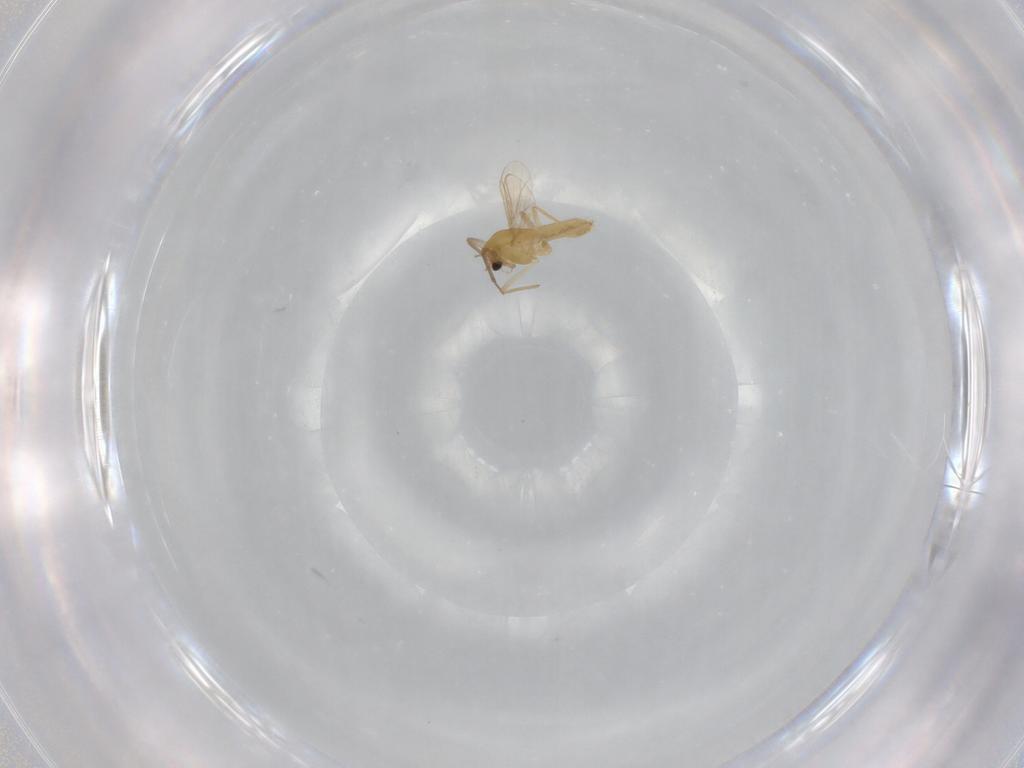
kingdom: Animalia
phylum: Arthropoda
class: Insecta
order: Diptera
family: Chironomidae
